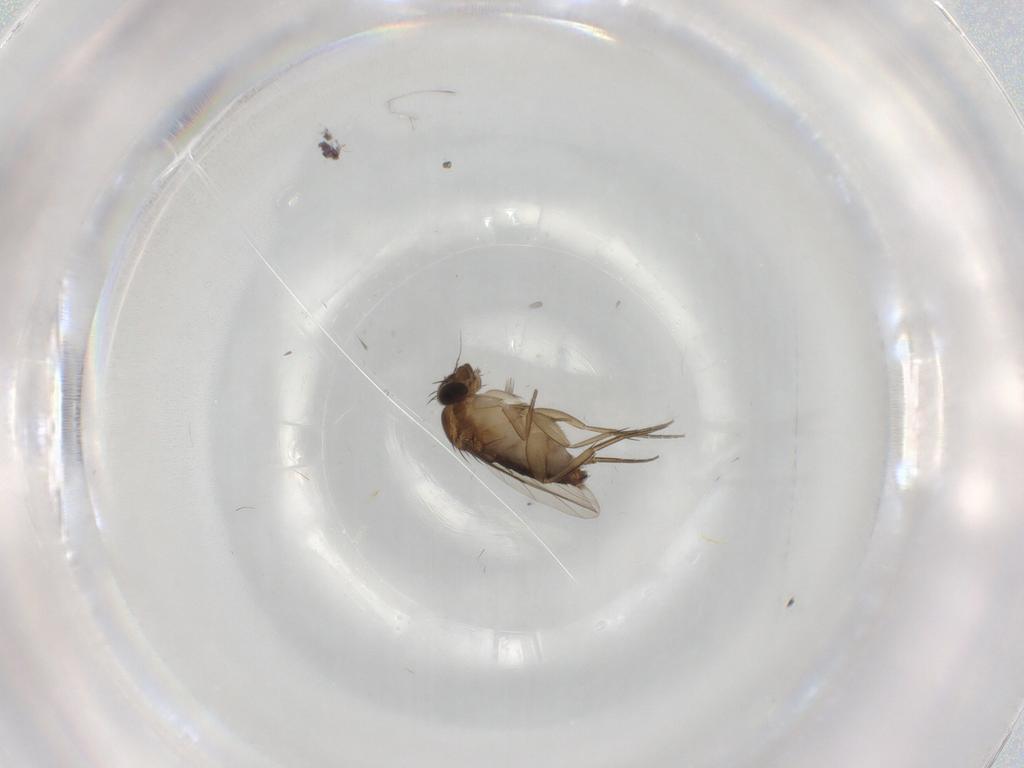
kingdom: Animalia
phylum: Arthropoda
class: Insecta
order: Diptera
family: Phoridae
